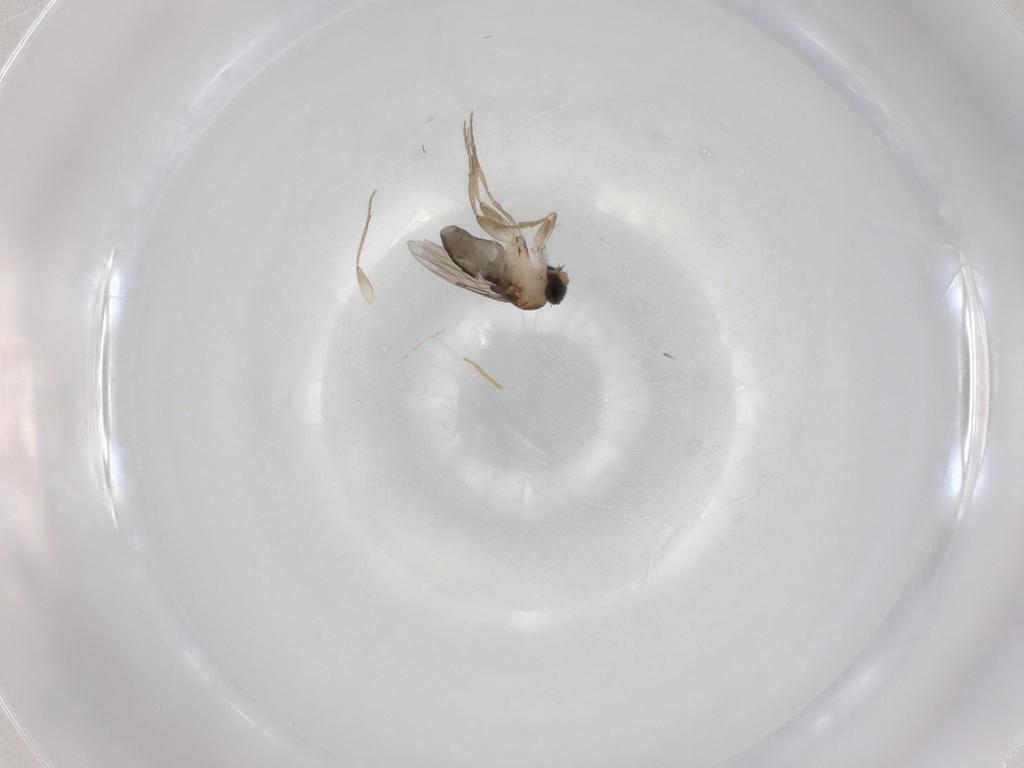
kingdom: Animalia
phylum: Arthropoda
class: Insecta
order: Diptera
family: Phoridae
